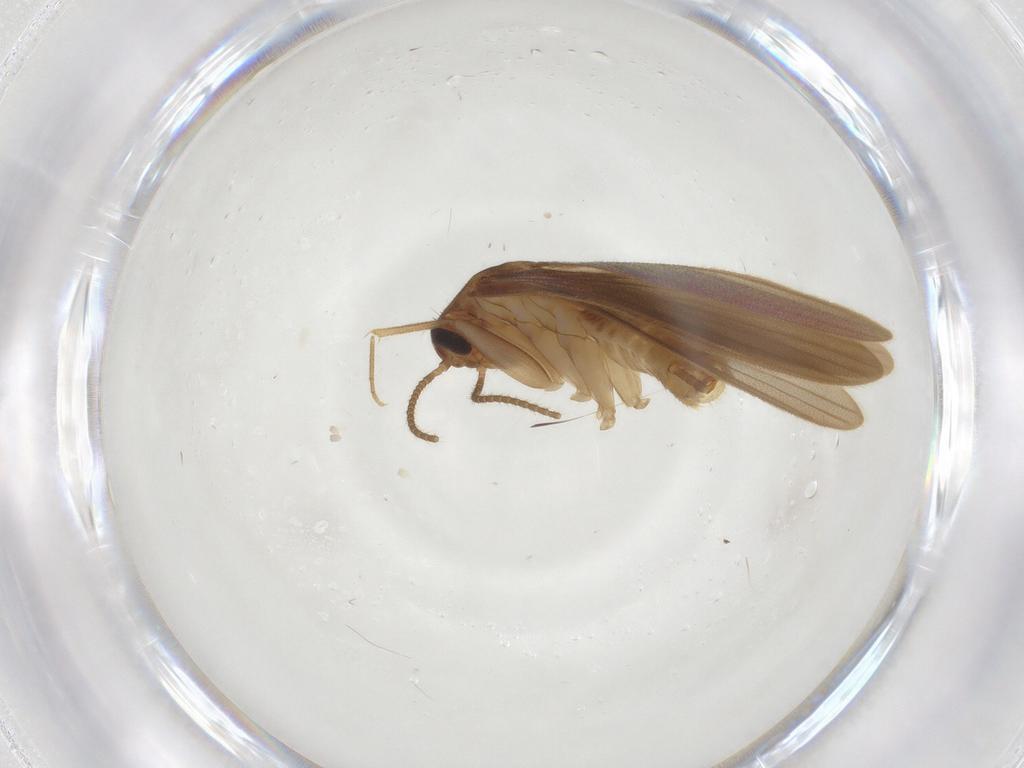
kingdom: Animalia
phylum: Arthropoda
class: Insecta
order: Blattodea
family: Nocticolidae
